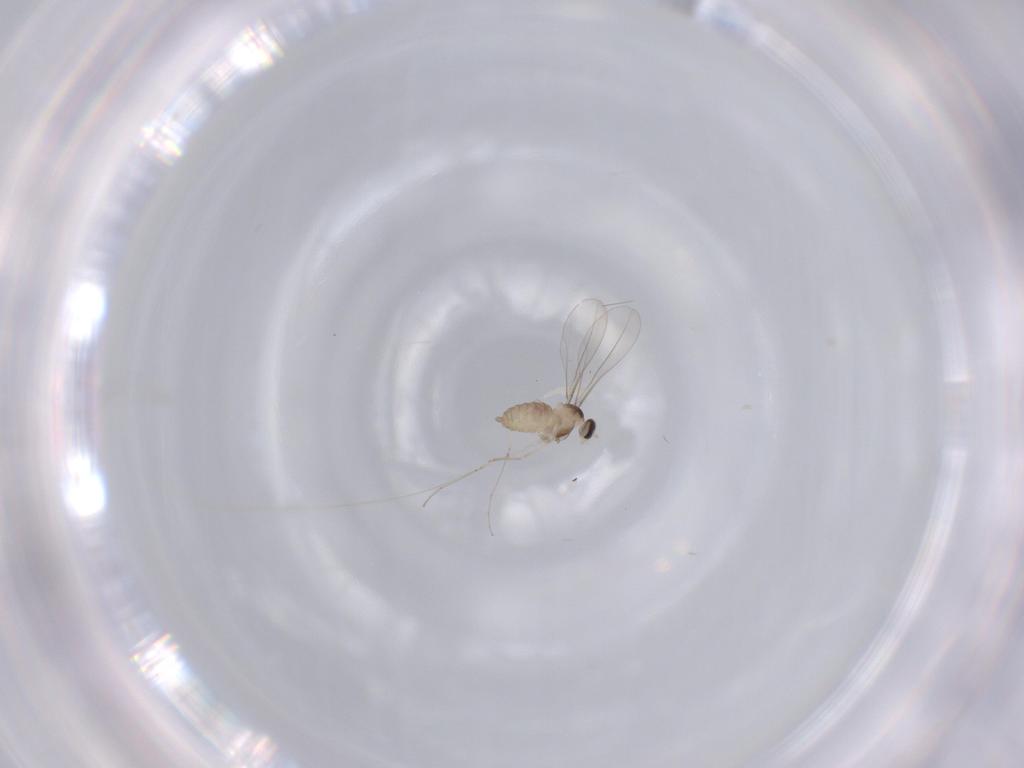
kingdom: Animalia
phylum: Arthropoda
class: Insecta
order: Diptera
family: Cecidomyiidae
